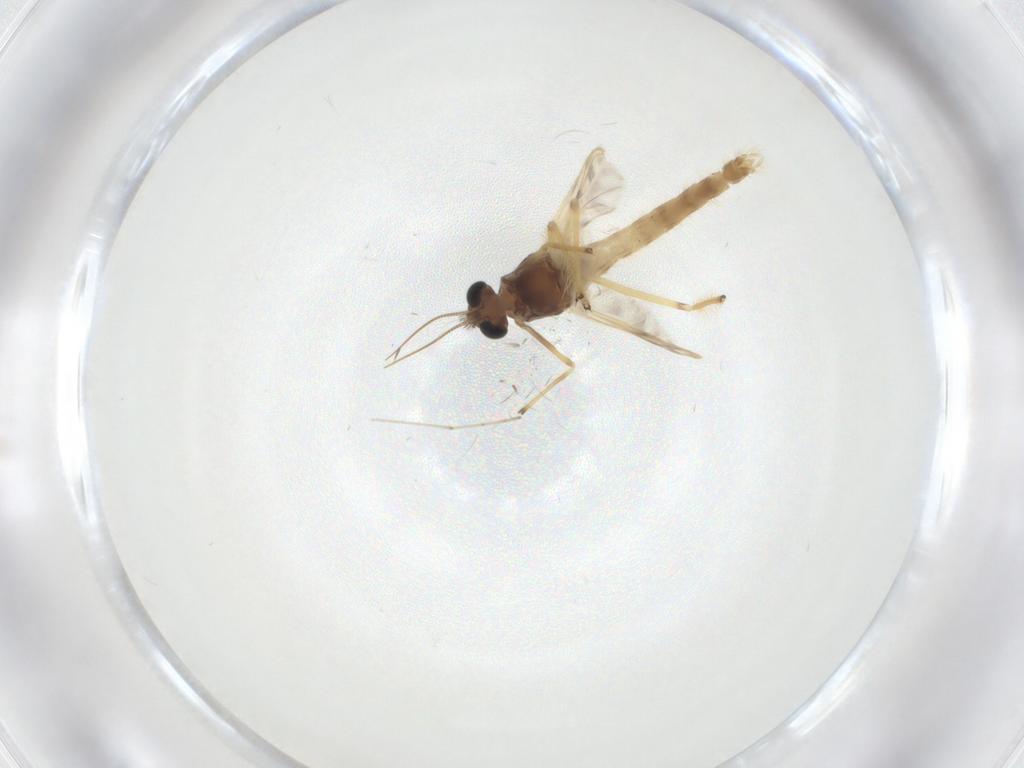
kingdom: Animalia
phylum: Arthropoda
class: Insecta
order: Diptera
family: Chironomidae
